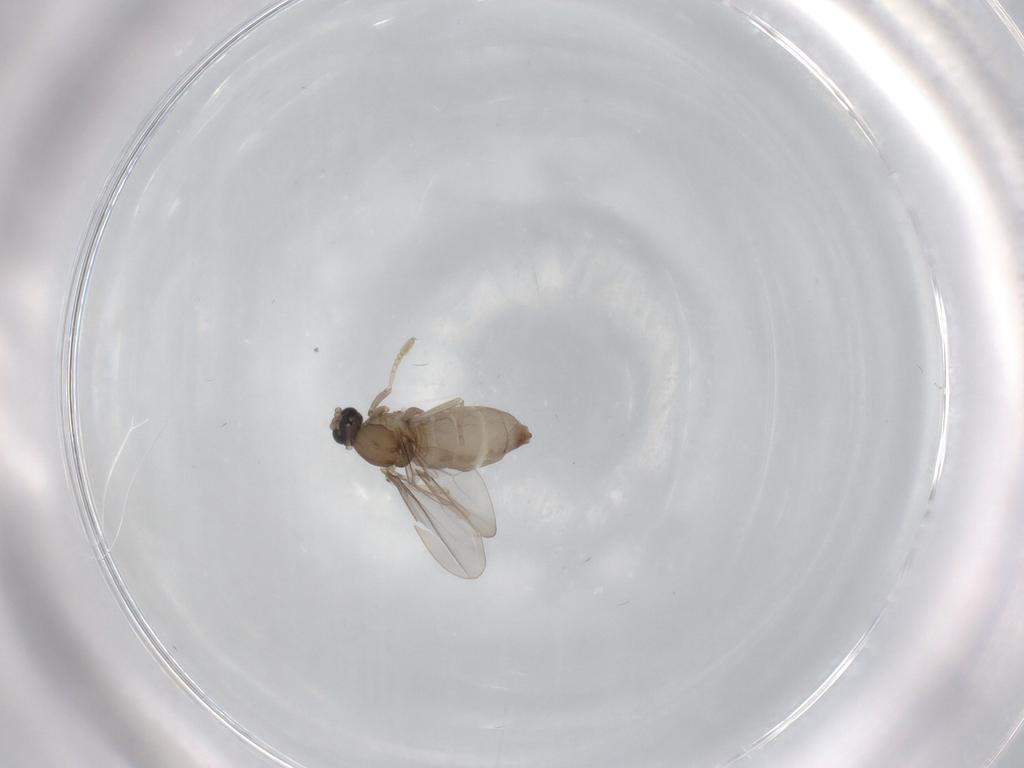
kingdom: Animalia
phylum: Arthropoda
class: Insecta
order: Diptera
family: Cecidomyiidae
